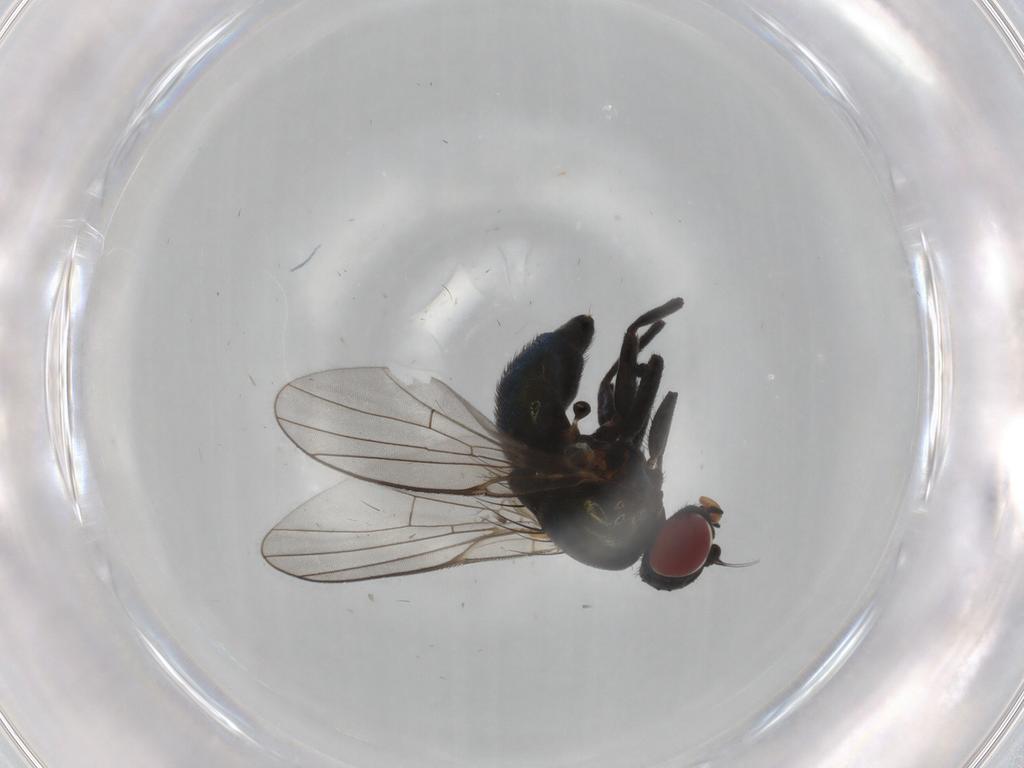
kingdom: Animalia
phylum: Arthropoda
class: Insecta
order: Diptera
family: Agromyzidae
